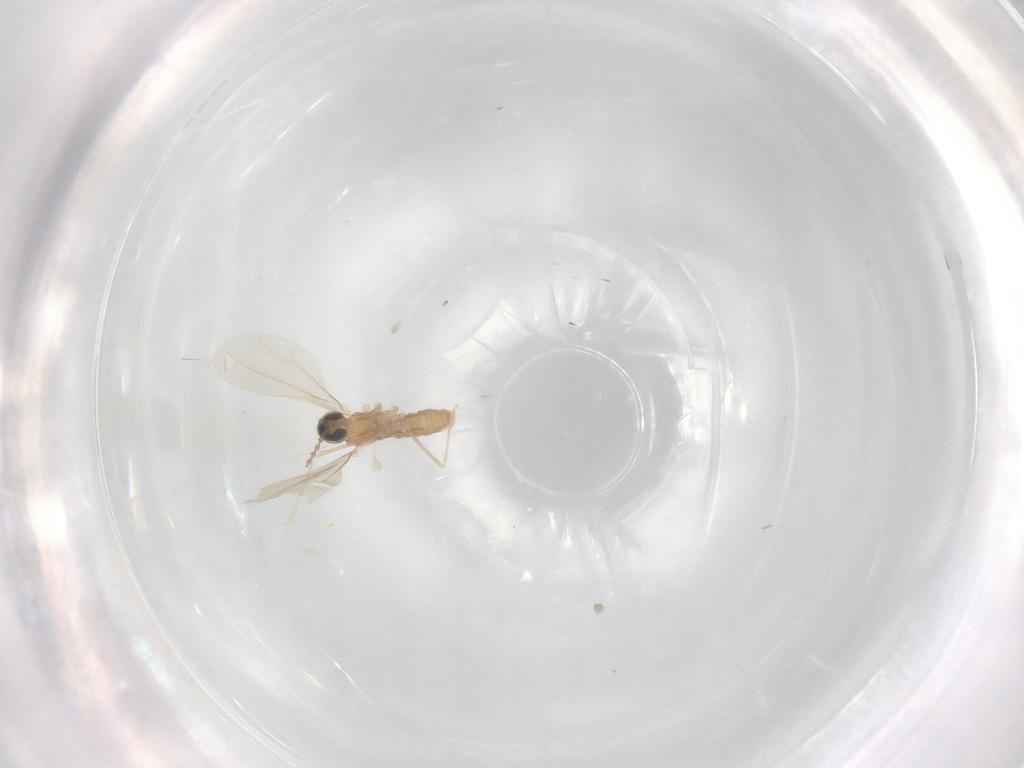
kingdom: Animalia
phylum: Arthropoda
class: Insecta
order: Diptera
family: Cecidomyiidae
